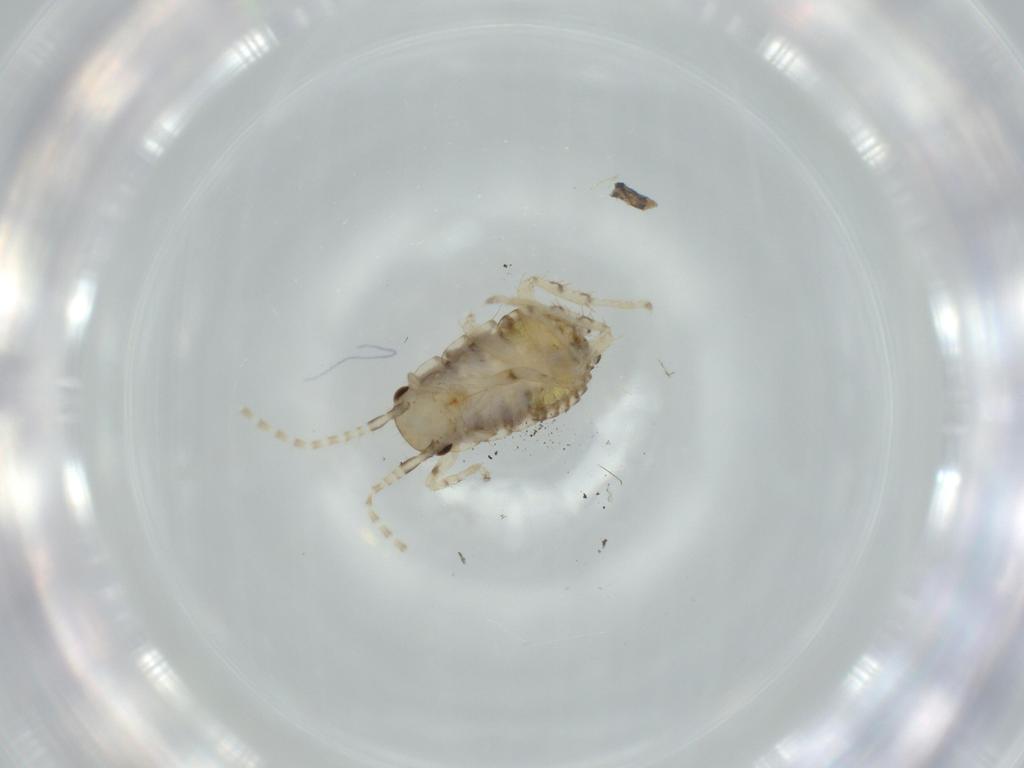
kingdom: Animalia
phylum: Arthropoda
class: Insecta
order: Blattodea
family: Ectobiidae
